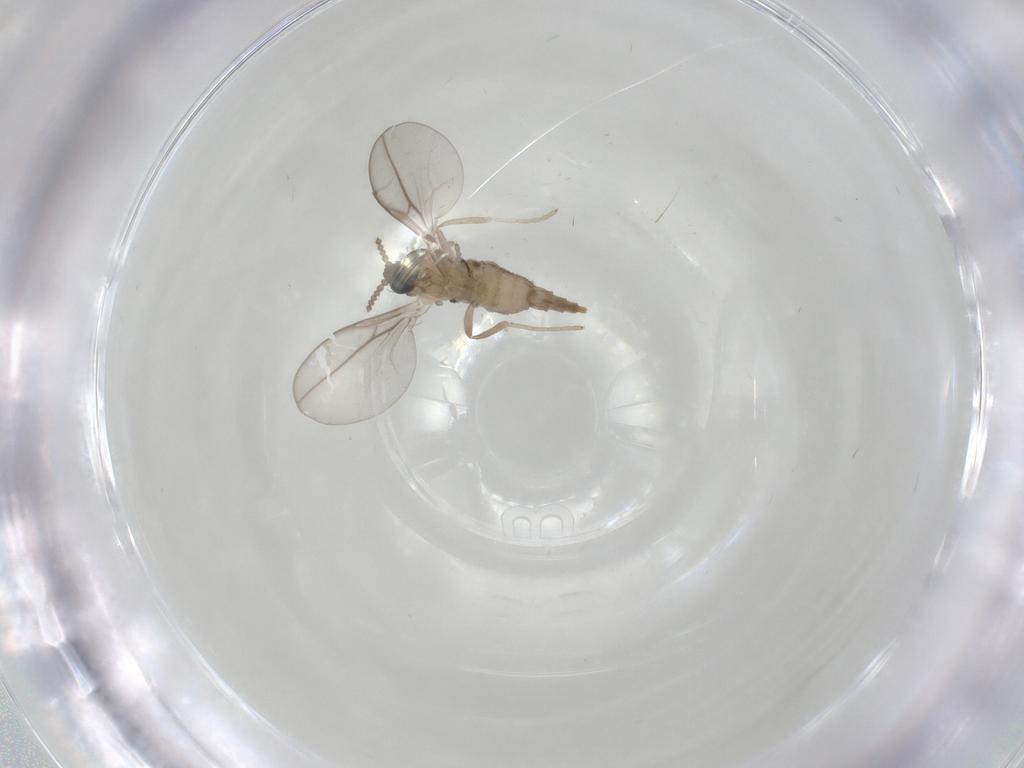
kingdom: Animalia
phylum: Arthropoda
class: Insecta
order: Diptera
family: Cecidomyiidae
